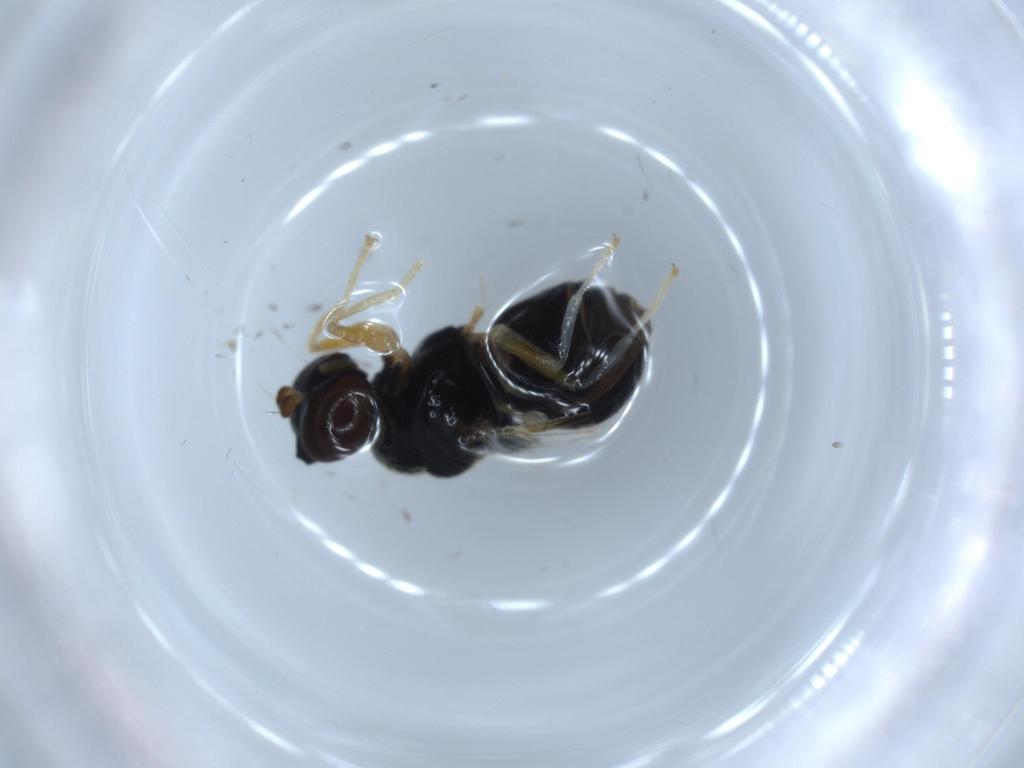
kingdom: Animalia
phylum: Arthropoda
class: Insecta
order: Diptera
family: Stratiomyidae
